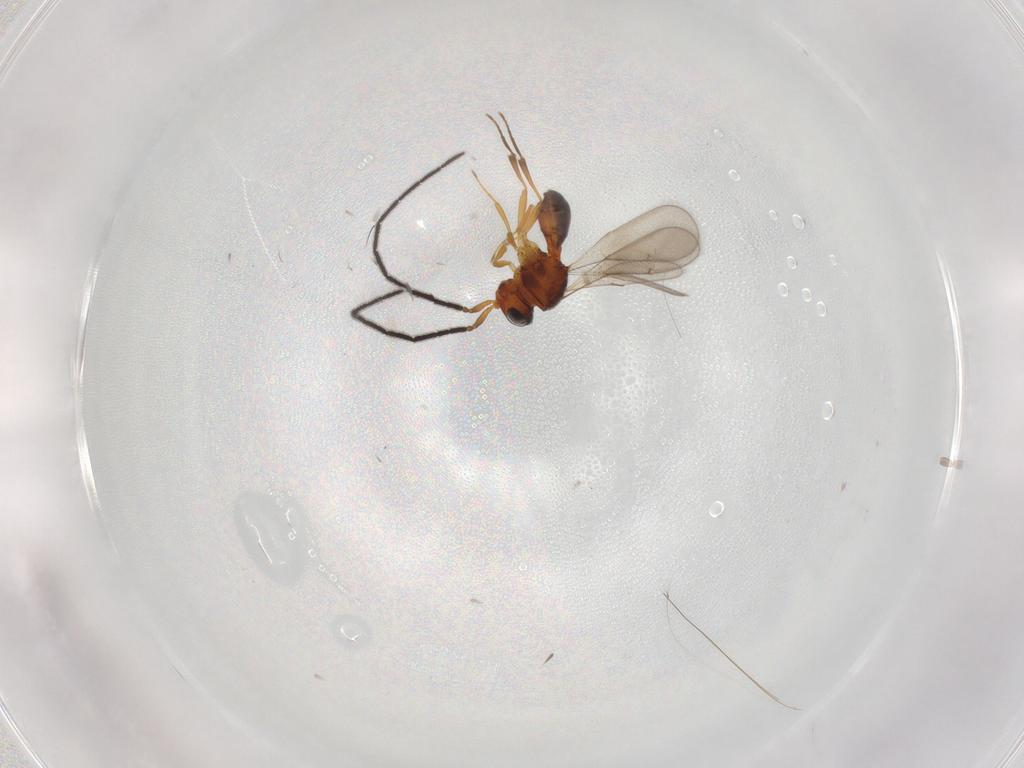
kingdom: Animalia
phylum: Arthropoda
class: Insecta
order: Hymenoptera
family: Scelionidae
